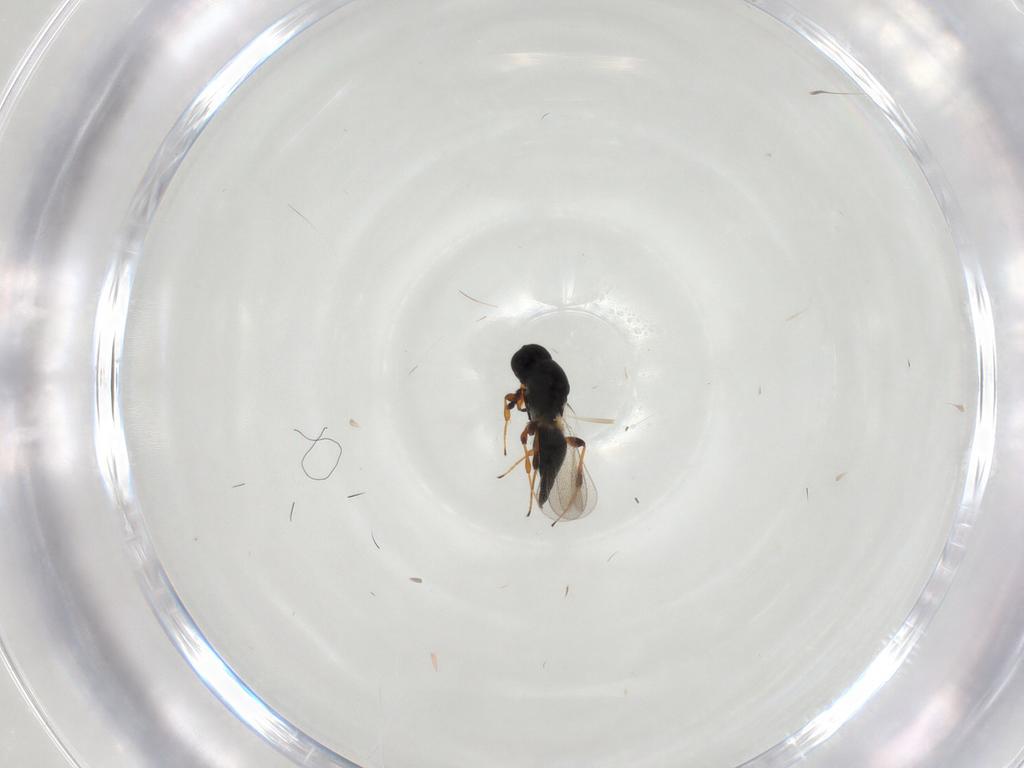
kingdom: Animalia
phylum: Arthropoda
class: Insecta
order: Hymenoptera
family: Platygastridae
